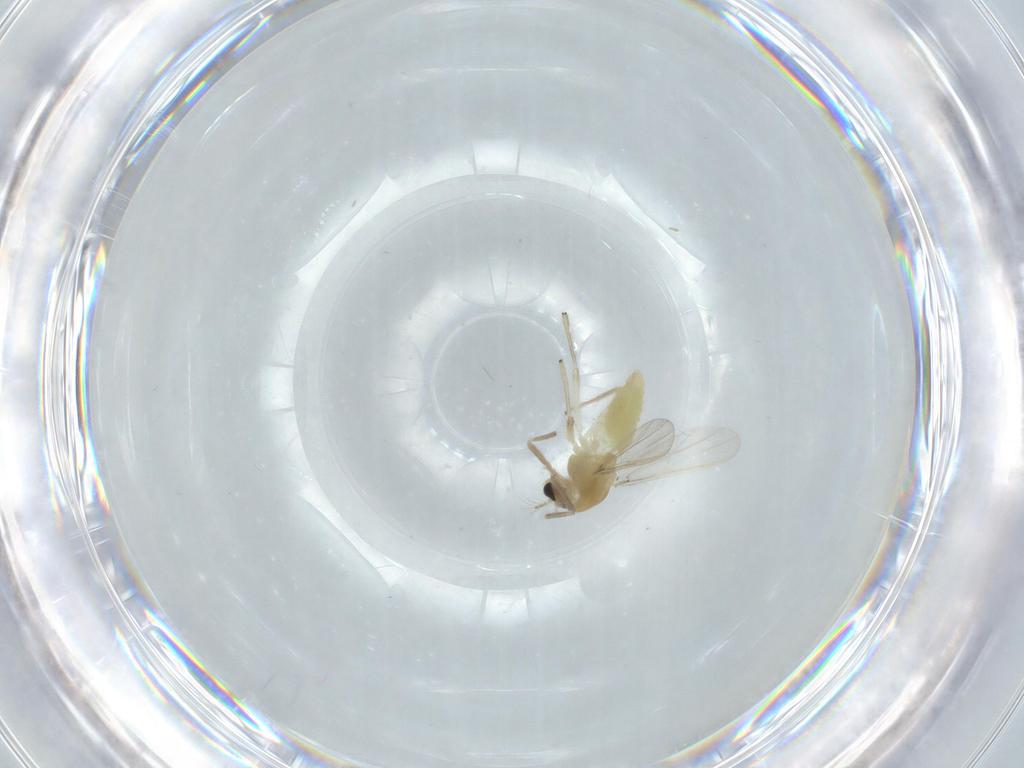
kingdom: Animalia
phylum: Arthropoda
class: Insecta
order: Diptera
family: Chironomidae
